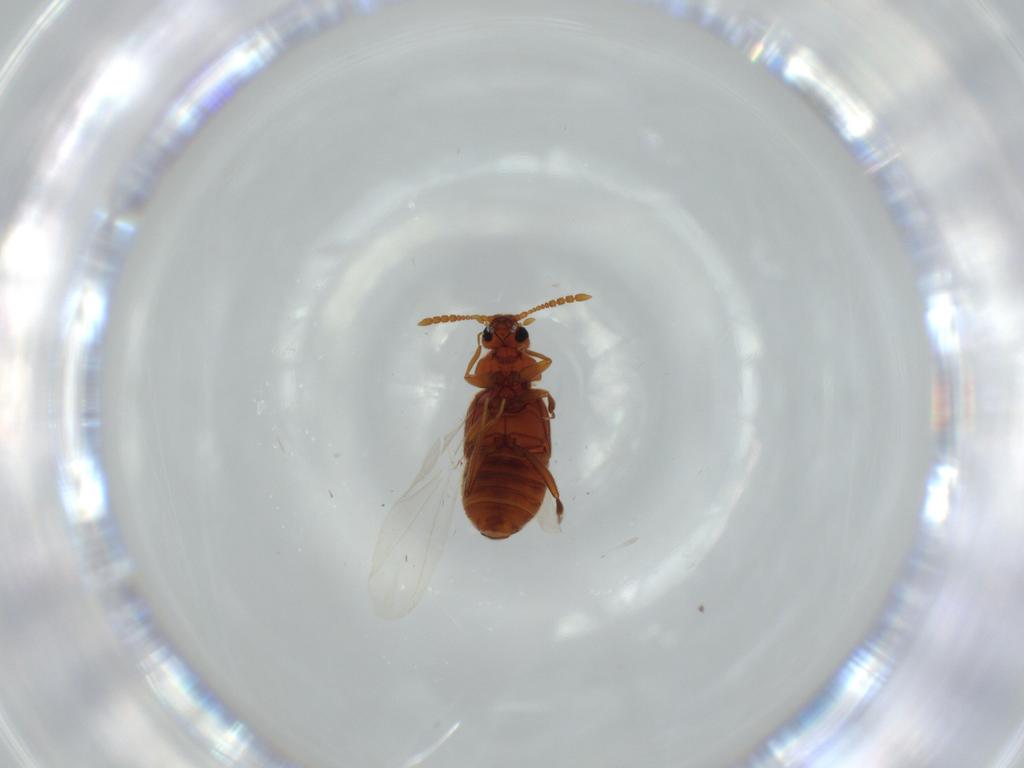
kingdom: Animalia
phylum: Arthropoda
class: Insecta
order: Coleoptera
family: Staphylinidae
